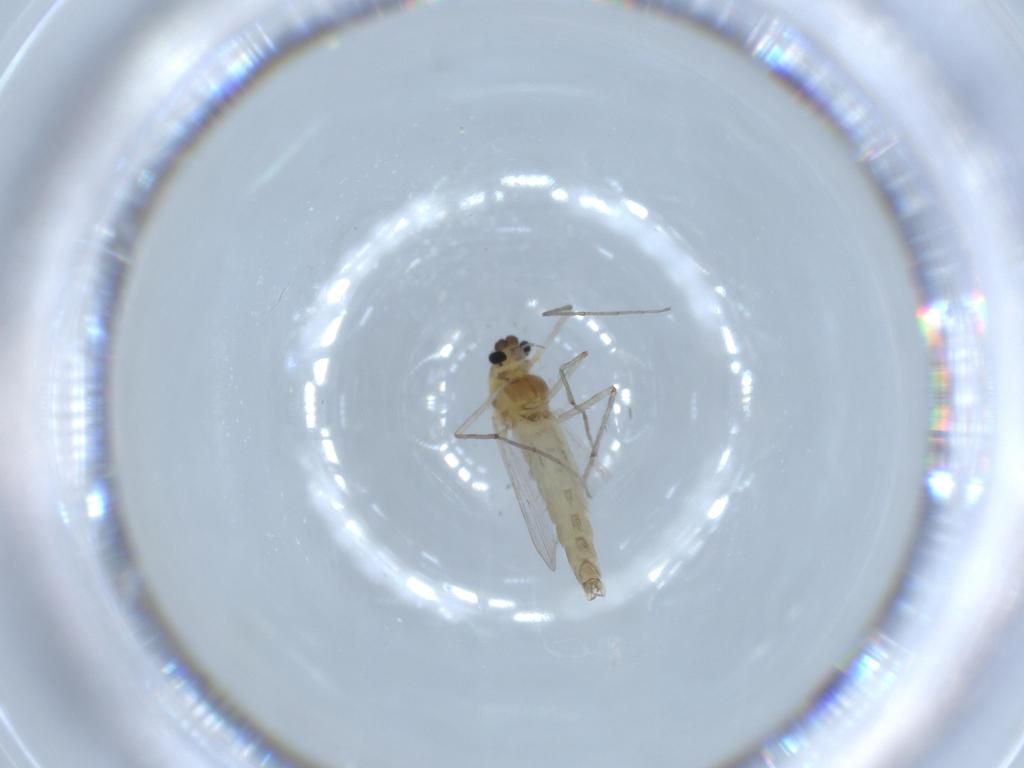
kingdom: Animalia
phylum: Arthropoda
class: Insecta
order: Diptera
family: Chironomidae
